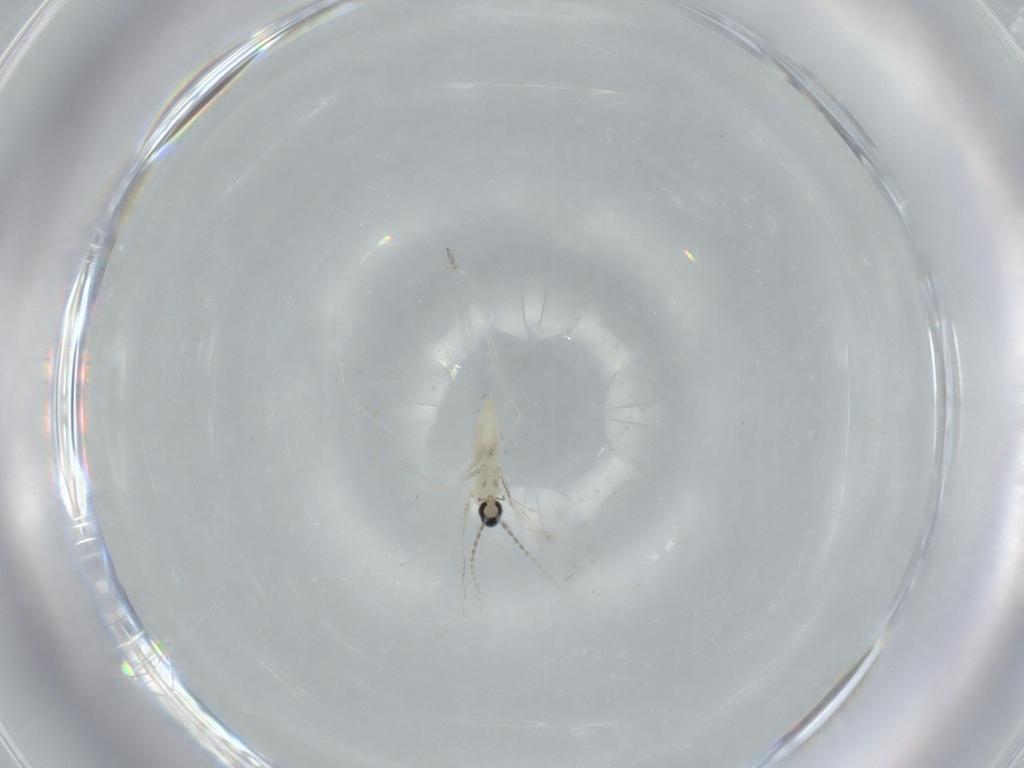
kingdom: Animalia
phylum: Arthropoda
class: Insecta
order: Diptera
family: Cecidomyiidae
